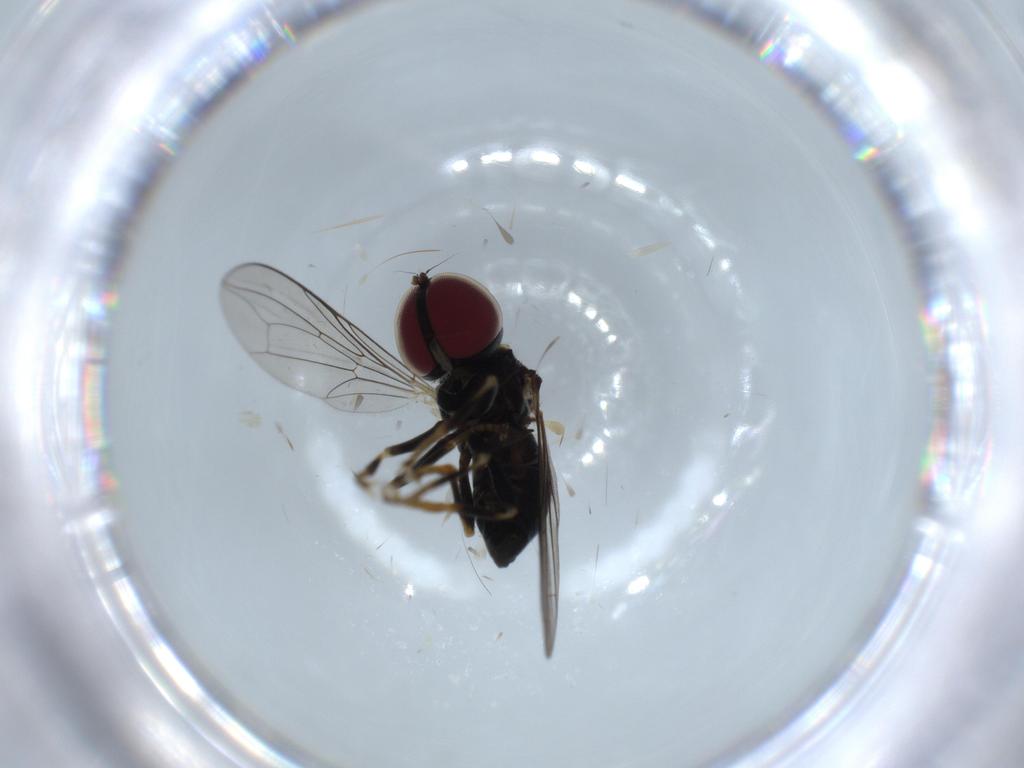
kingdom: Animalia
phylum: Arthropoda
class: Insecta
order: Diptera
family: Pipunculidae
